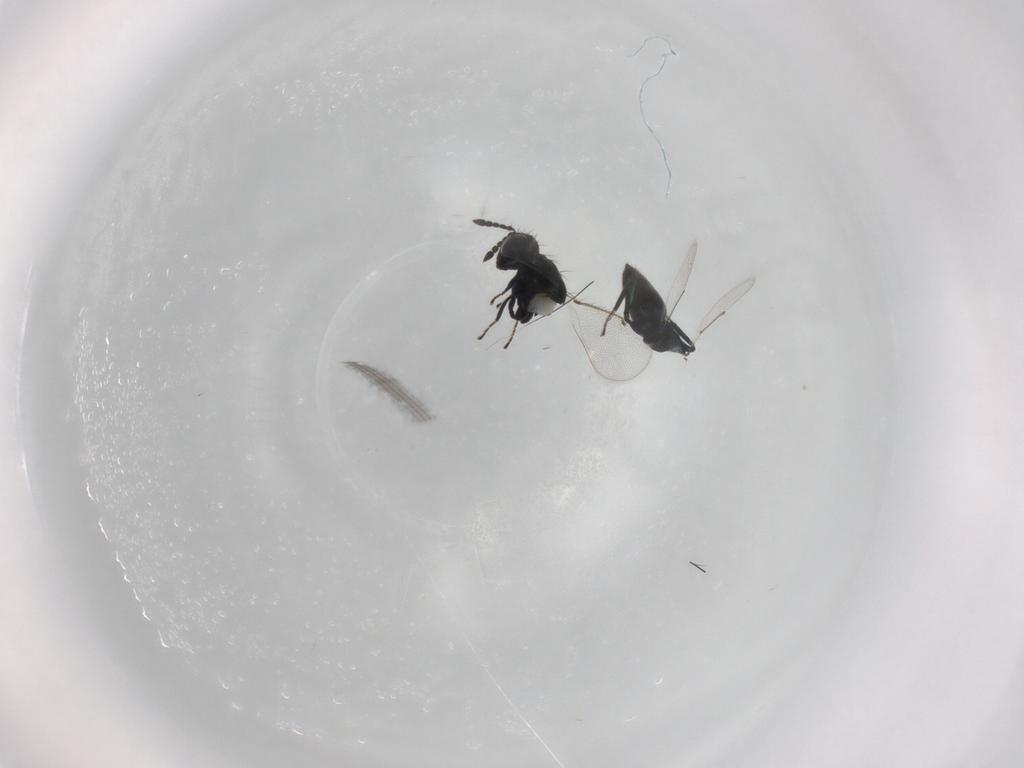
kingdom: Animalia
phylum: Arthropoda
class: Insecta
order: Hymenoptera
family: Eulophidae
